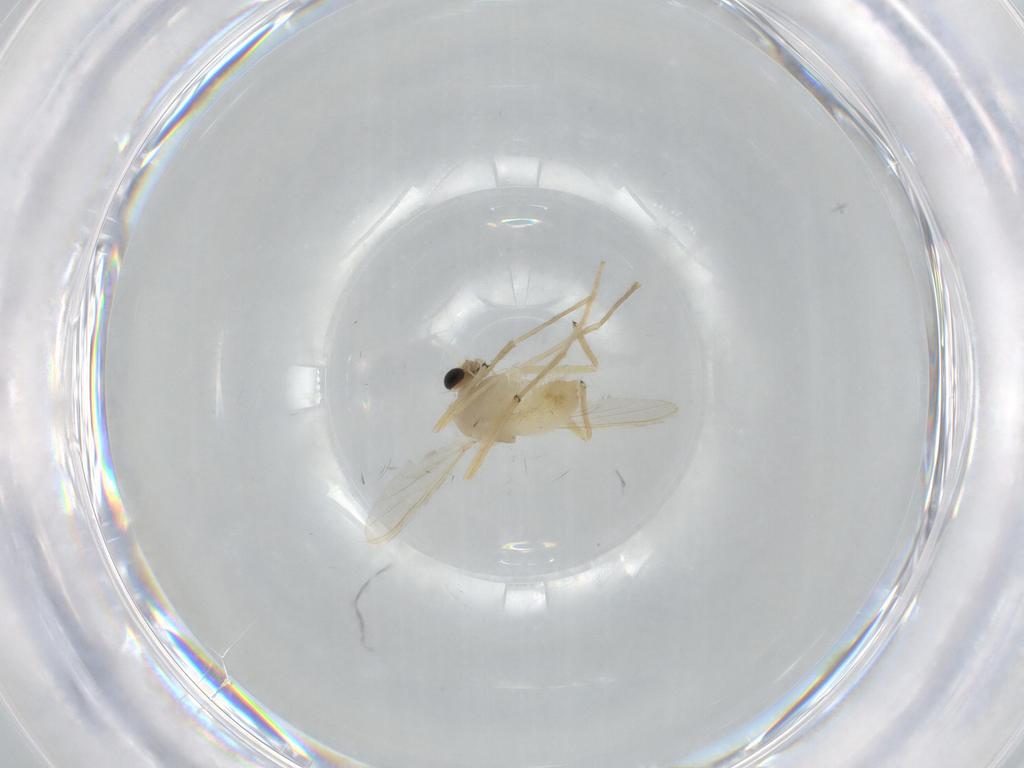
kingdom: Animalia
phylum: Arthropoda
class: Insecta
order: Diptera
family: Chironomidae
